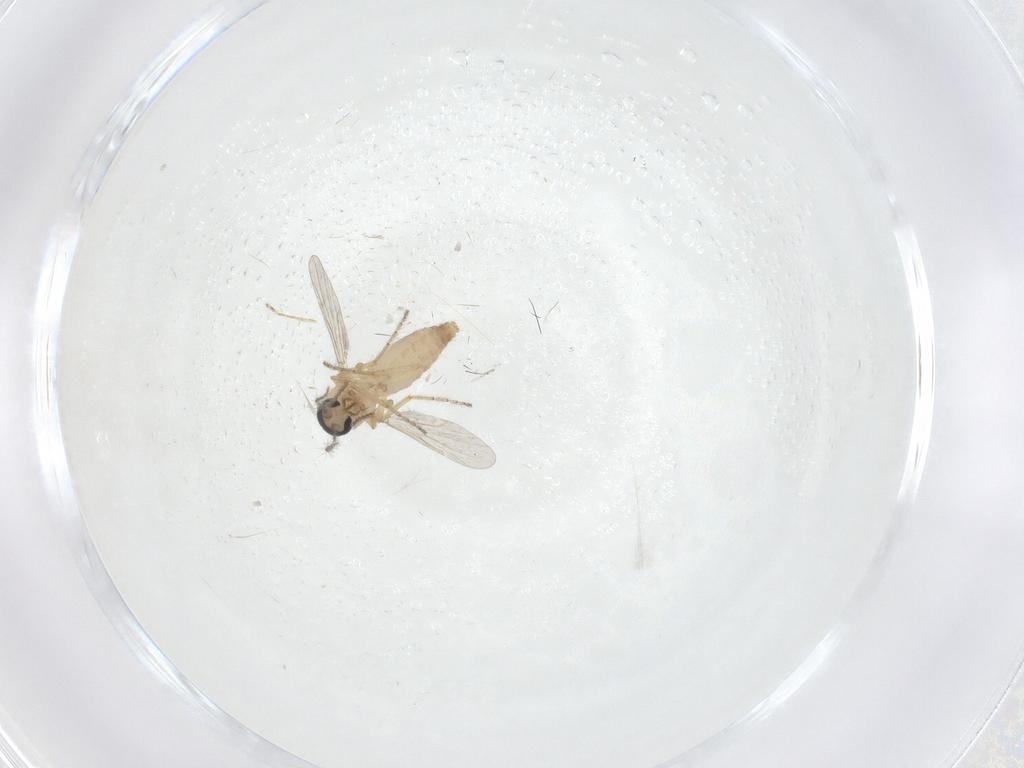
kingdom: Animalia
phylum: Arthropoda
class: Insecta
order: Diptera
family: Ceratopogonidae
